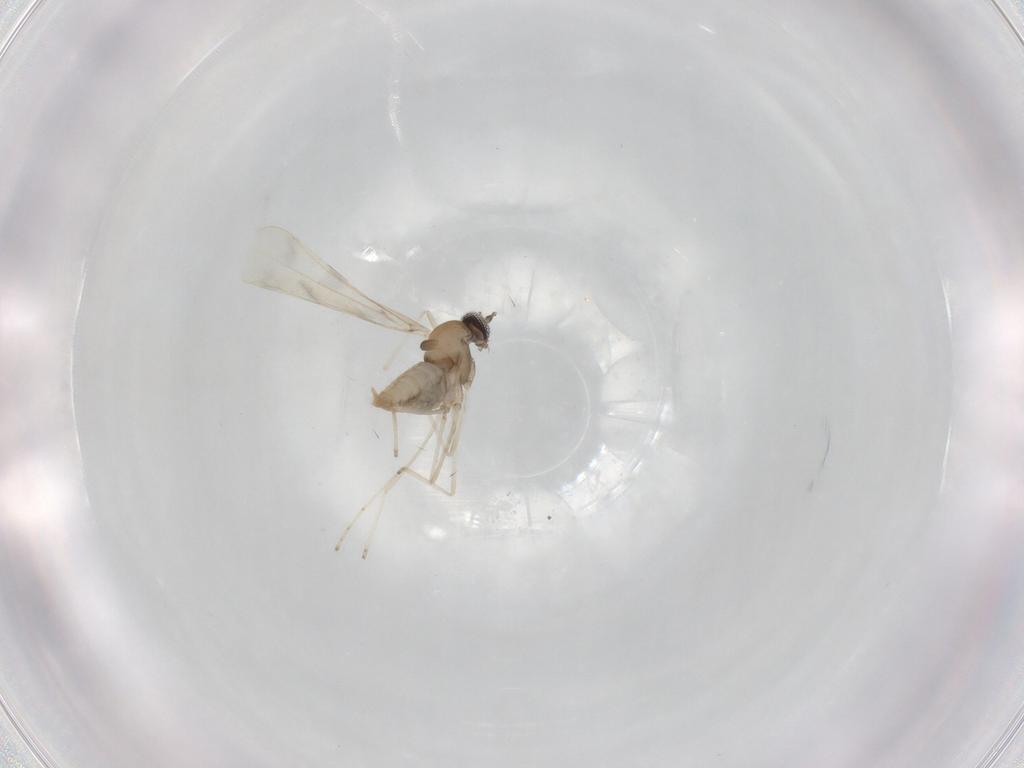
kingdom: Animalia
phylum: Arthropoda
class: Insecta
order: Diptera
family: Cecidomyiidae
